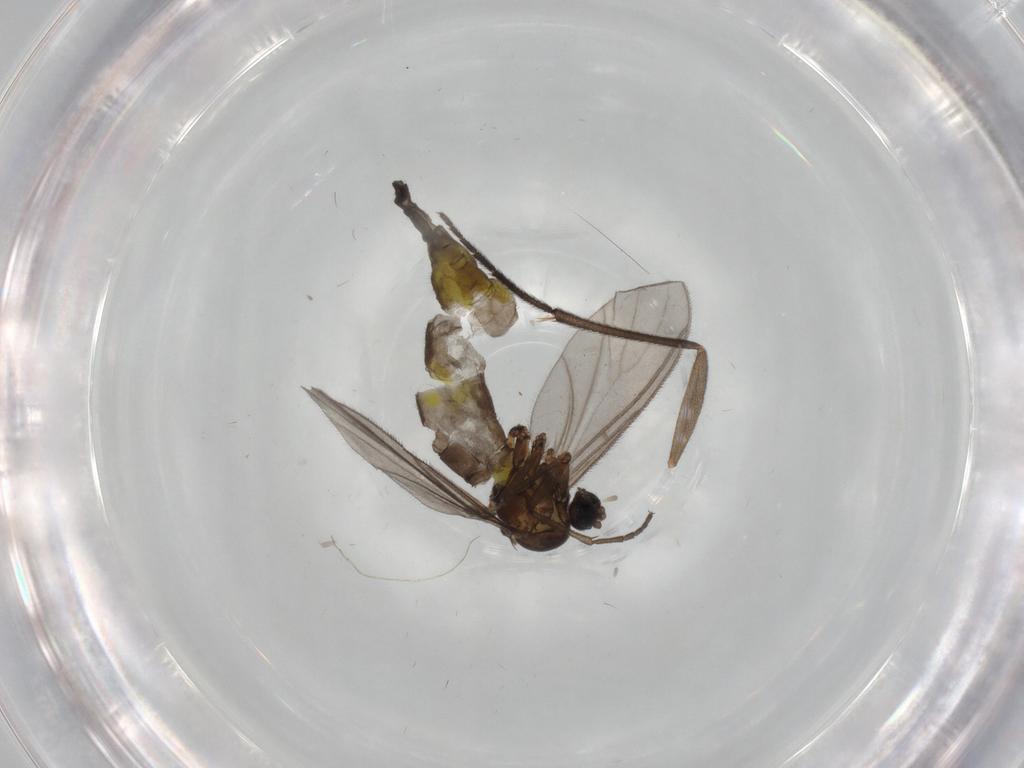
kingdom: Animalia
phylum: Arthropoda
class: Insecta
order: Diptera
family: Sciaridae
